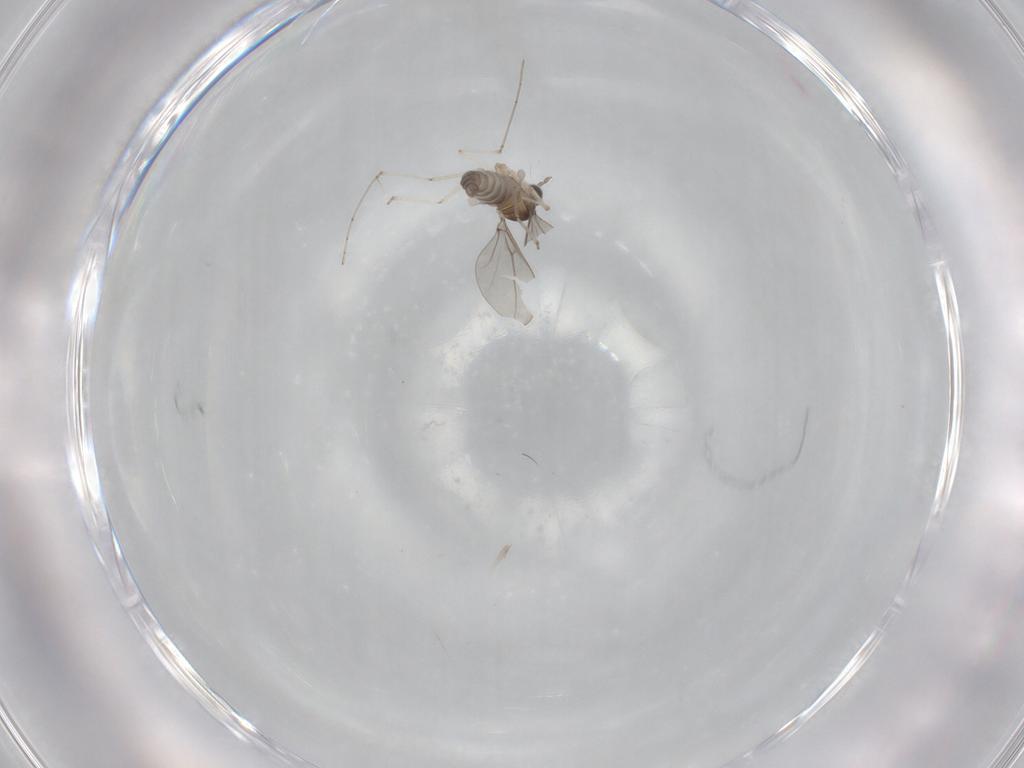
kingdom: Animalia
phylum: Arthropoda
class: Insecta
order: Diptera
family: Cecidomyiidae
